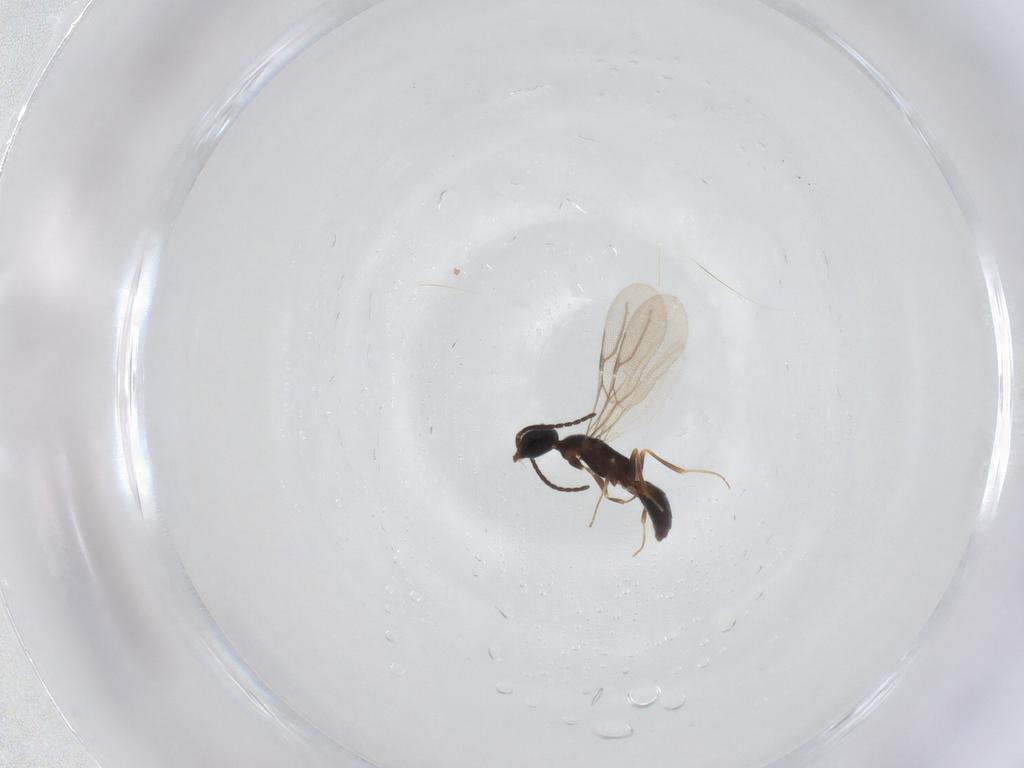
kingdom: Animalia
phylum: Arthropoda
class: Insecta
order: Hymenoptera
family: Bethylidae
